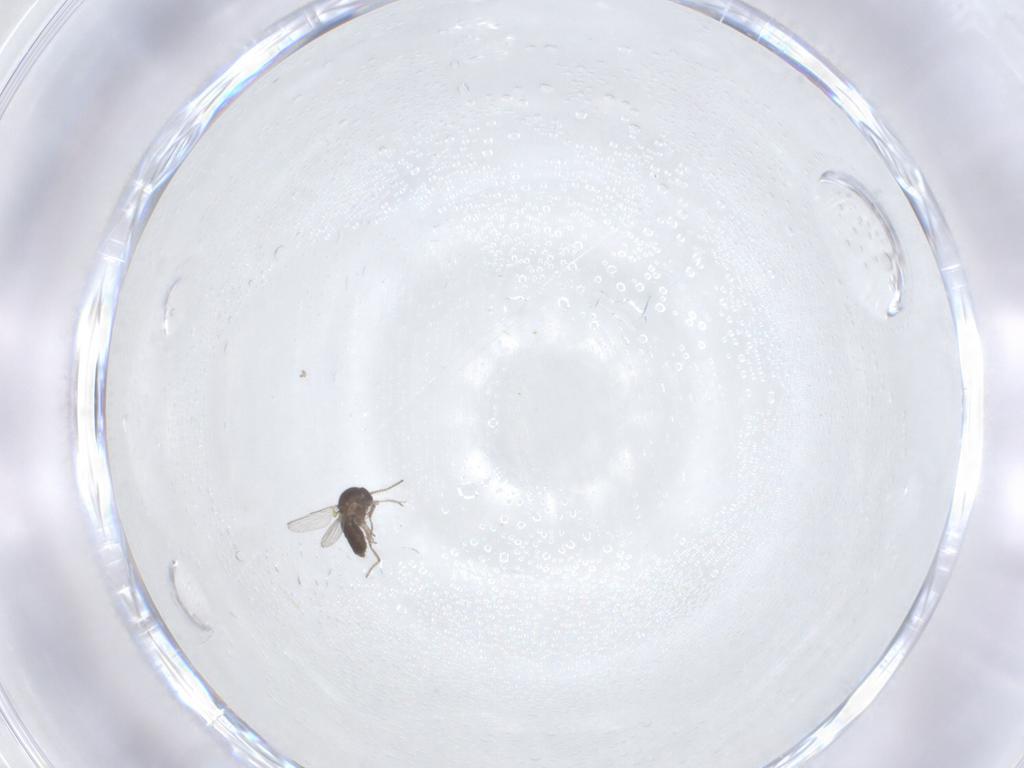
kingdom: Animalia
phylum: Arthropoda
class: Insecta
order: Diptera
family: Ceratopogonidae
